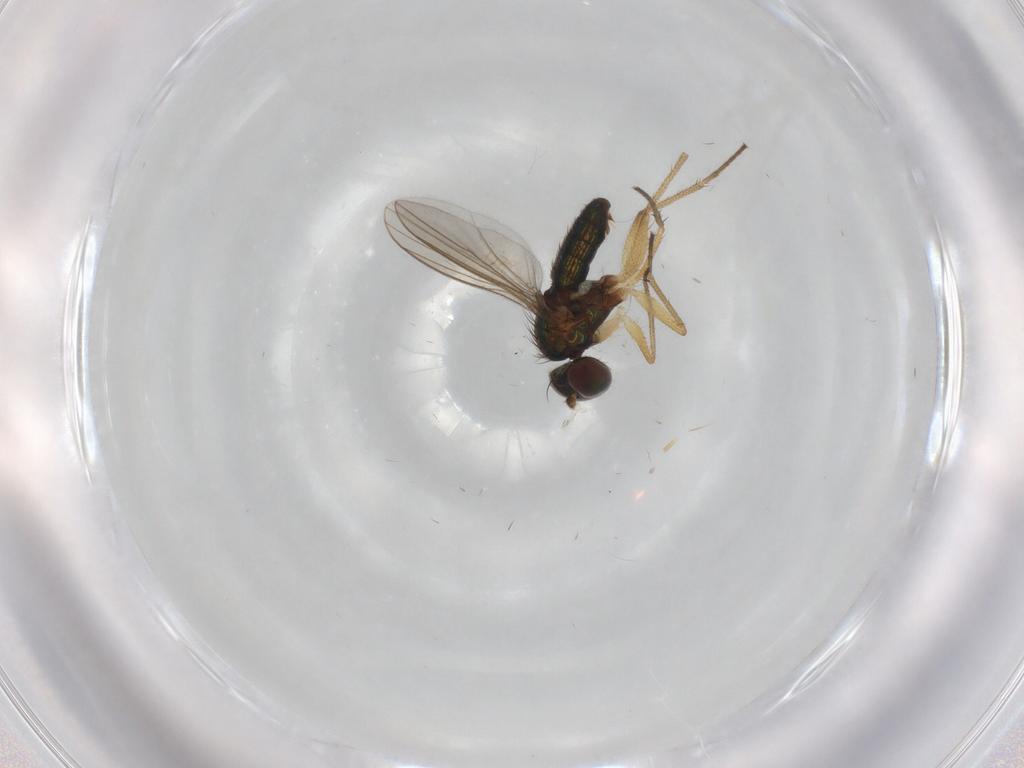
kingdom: Animalia
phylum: Arthropoda
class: Insecta
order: Diptera
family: Dolichopodidae
